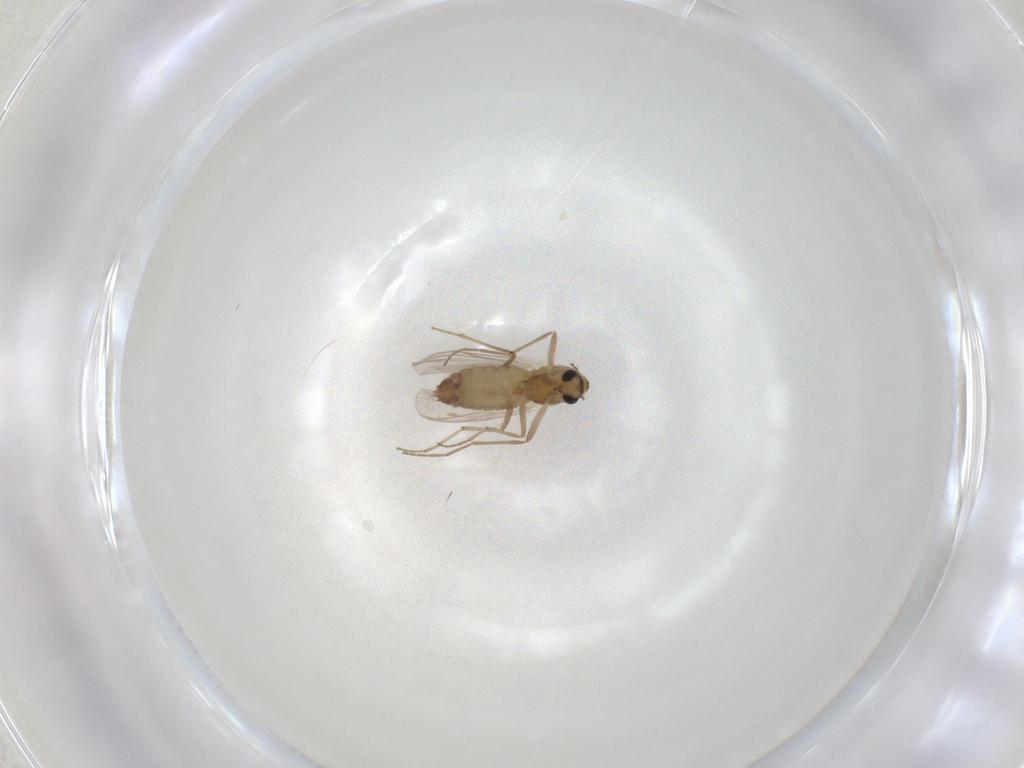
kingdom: Animalia
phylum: Arthropoda
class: Insecta
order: Diptera
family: Chironomidae
